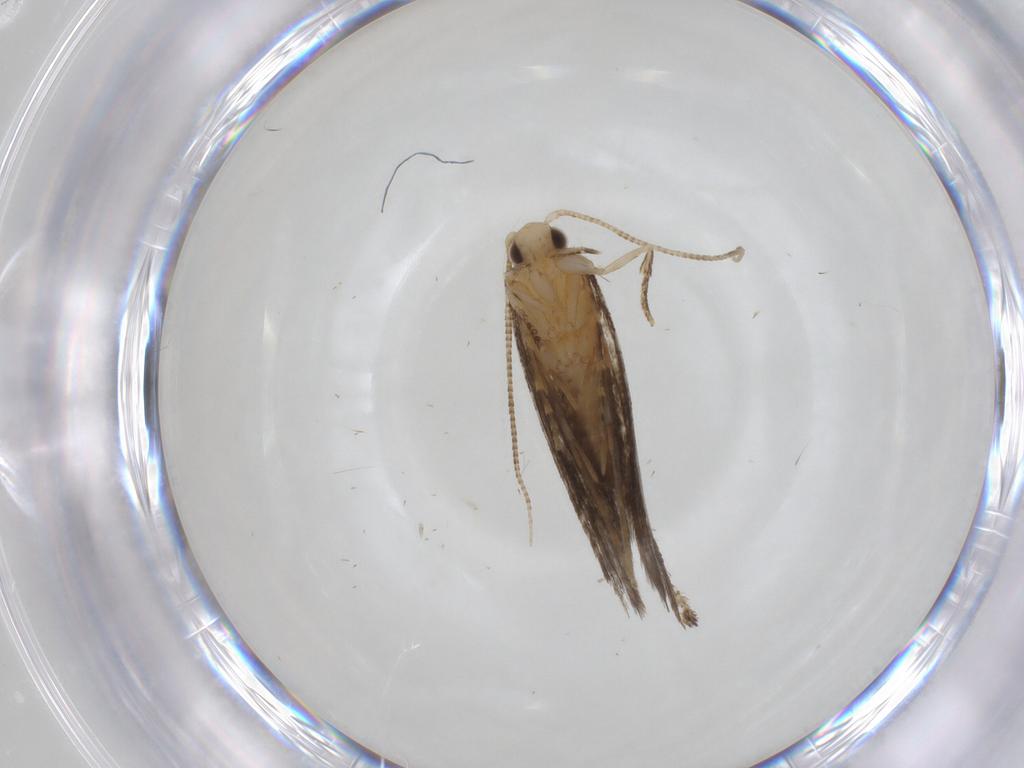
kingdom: Animalia
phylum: Arthropoda
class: Insecta
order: Lepidoptera
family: Tineidae
